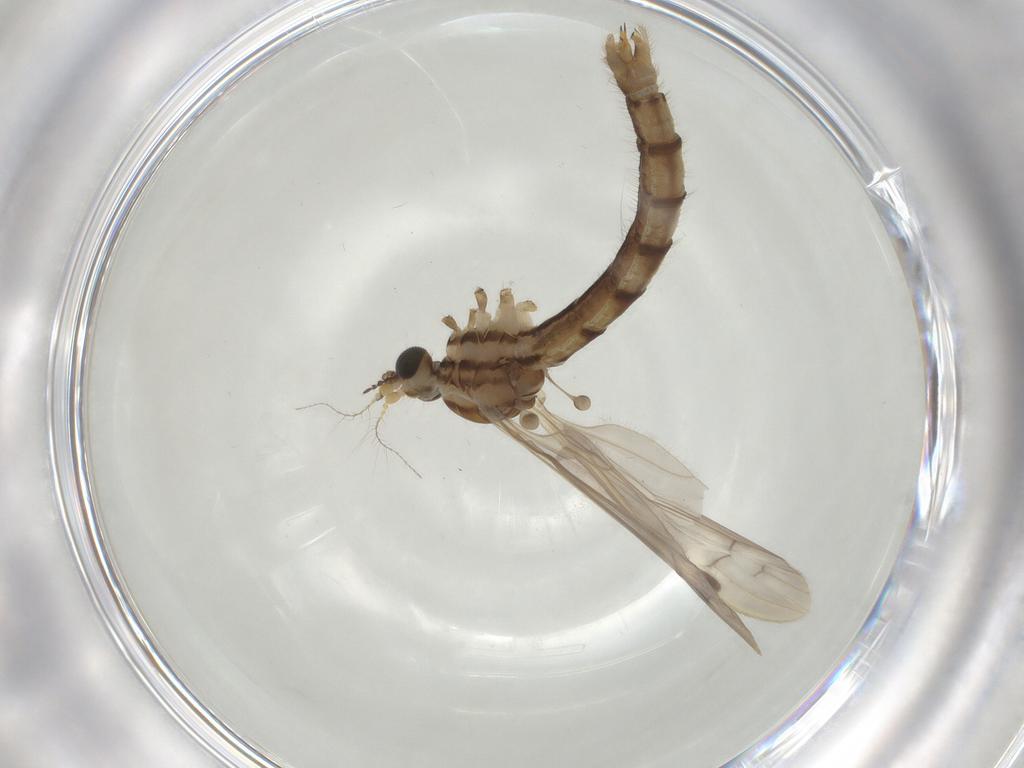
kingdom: Animalia
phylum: Arthropoda
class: Insecta
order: Diptera
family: Limoniidae
